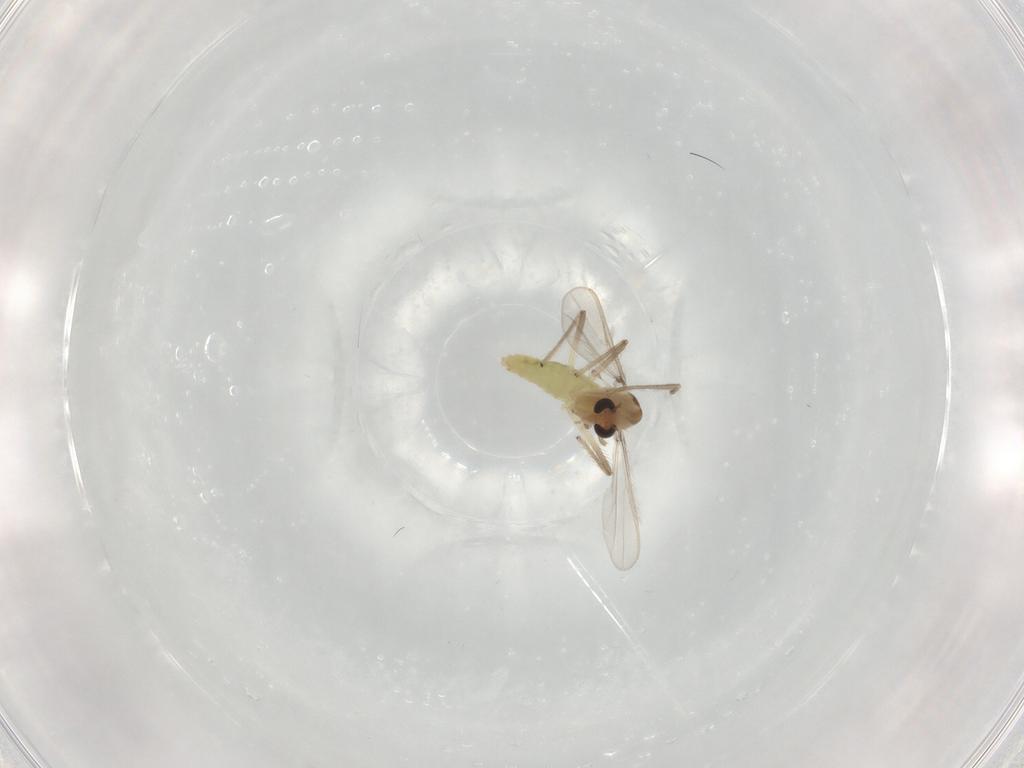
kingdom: Animalia
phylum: Arthropoda
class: Insecta
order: Diptera
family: Chironomidae
